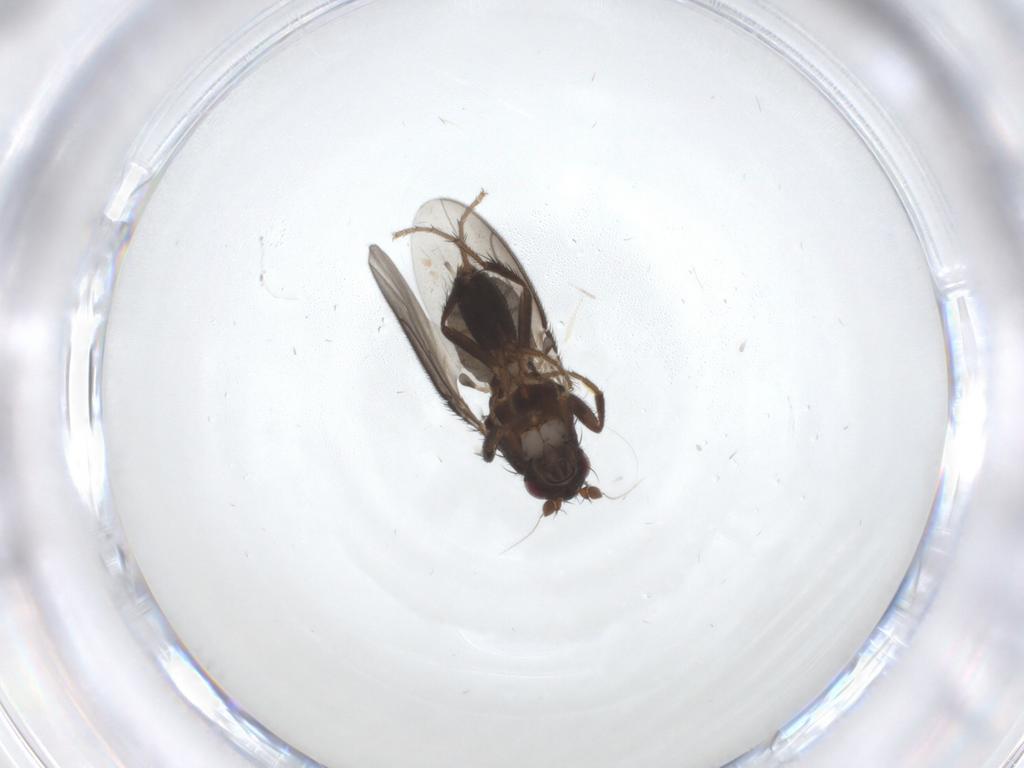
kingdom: Animalia
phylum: Arthropoda
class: Insecta
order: Diptera
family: Sphaeroceridae
